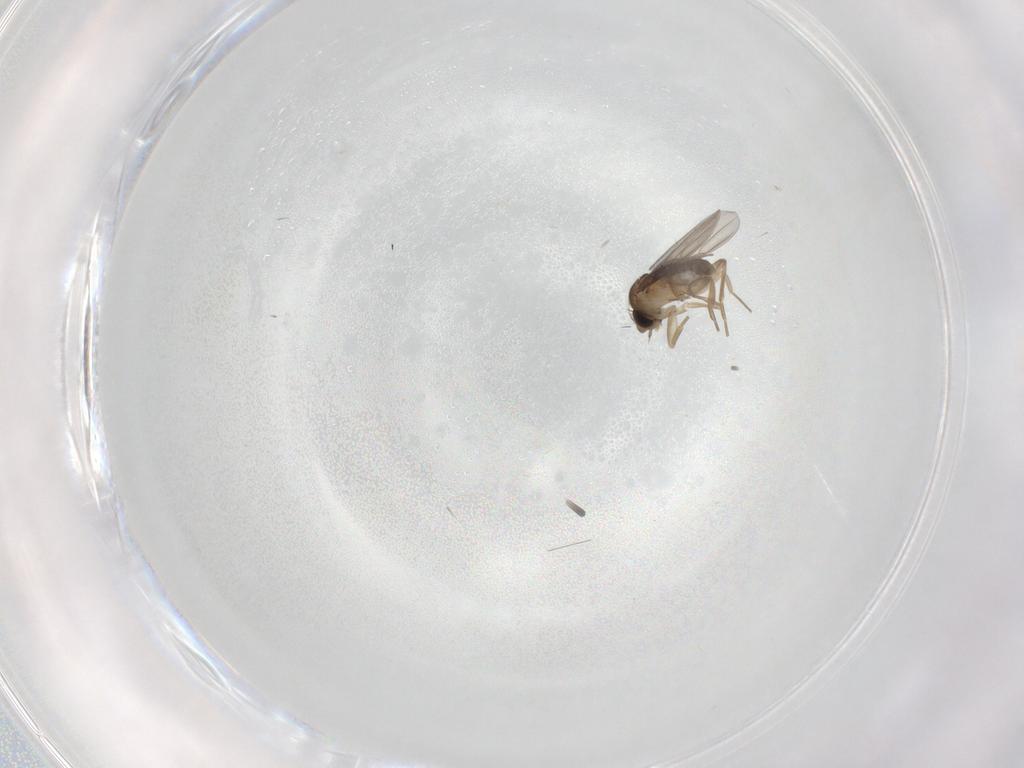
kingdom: Animalia
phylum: Arthropoda
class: Insecta
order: Diptera
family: Phoridae
